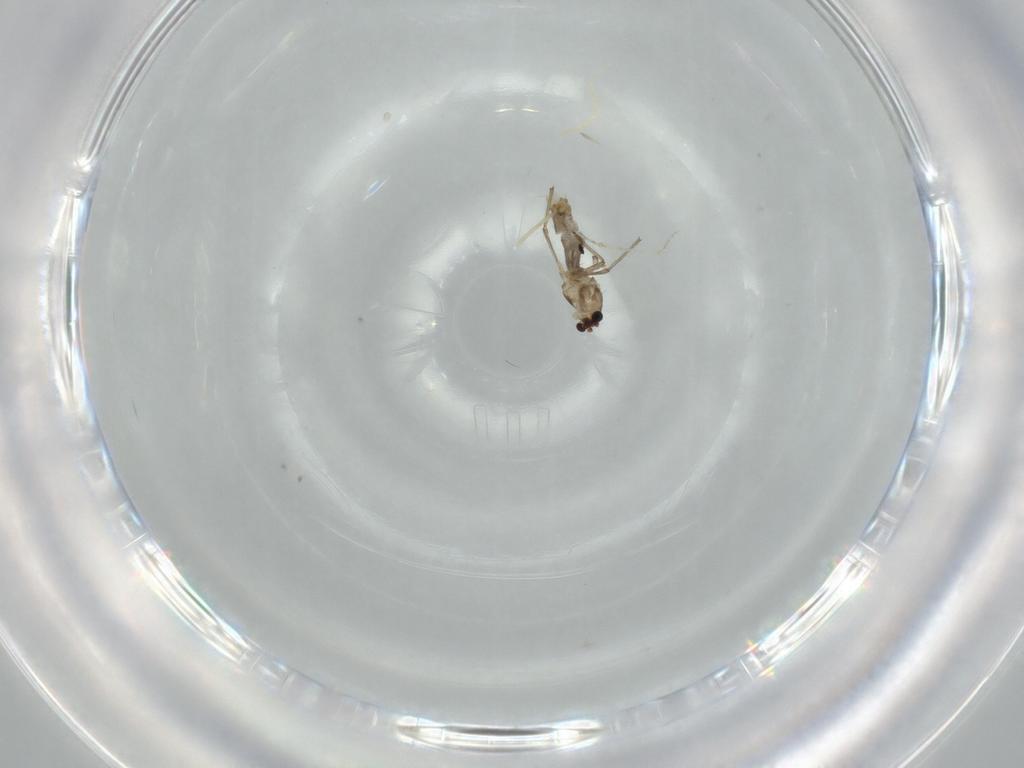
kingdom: Animalia
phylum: Arthropoda
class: Insecta
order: Diptera
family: Chironomidae
